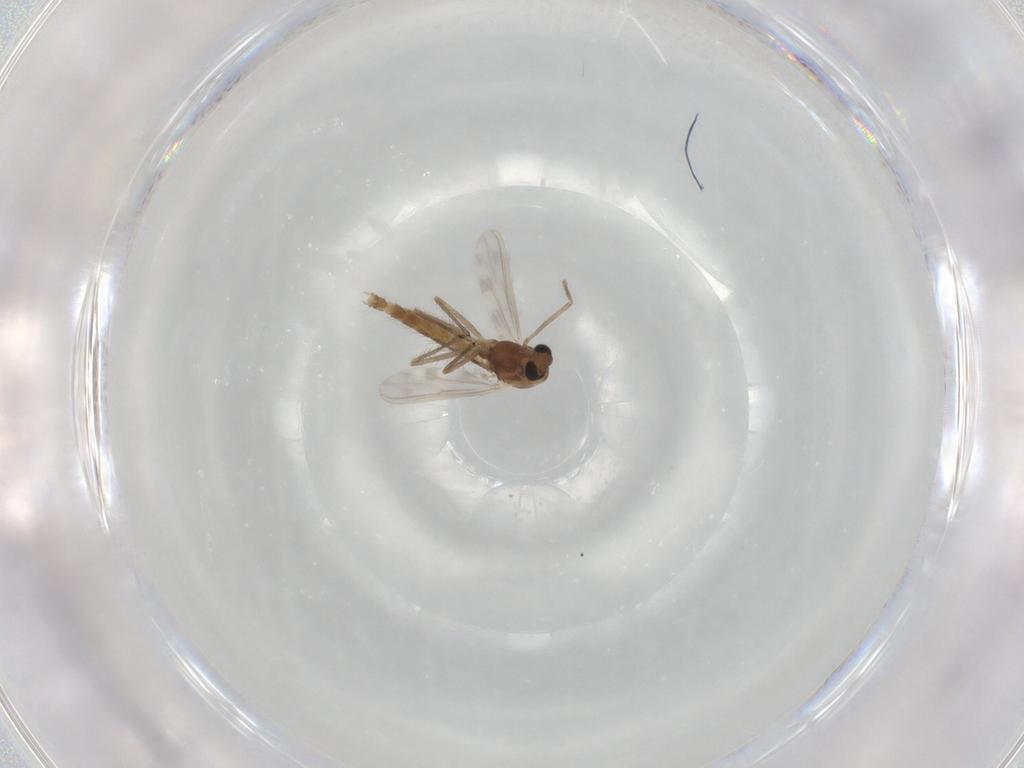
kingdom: Animalia
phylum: Arthropoda
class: Insecta
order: Diptera
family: Chironomidae
